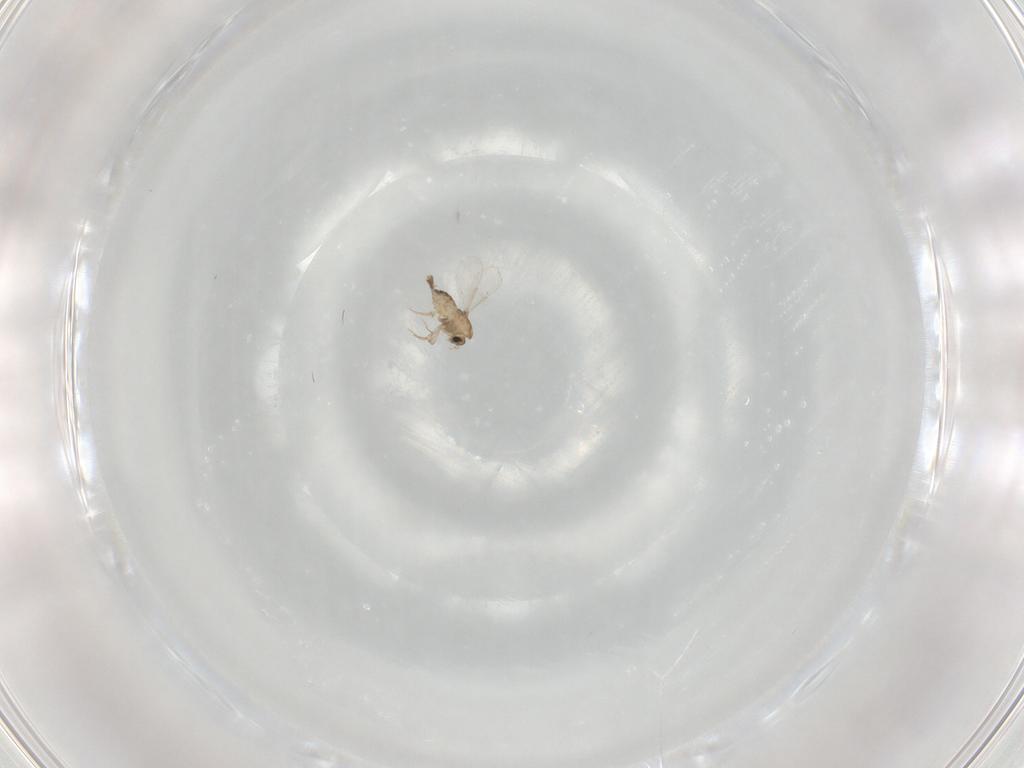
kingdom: Animalia
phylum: Arthropoda
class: Insecta
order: Diptera
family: Chironomidae
